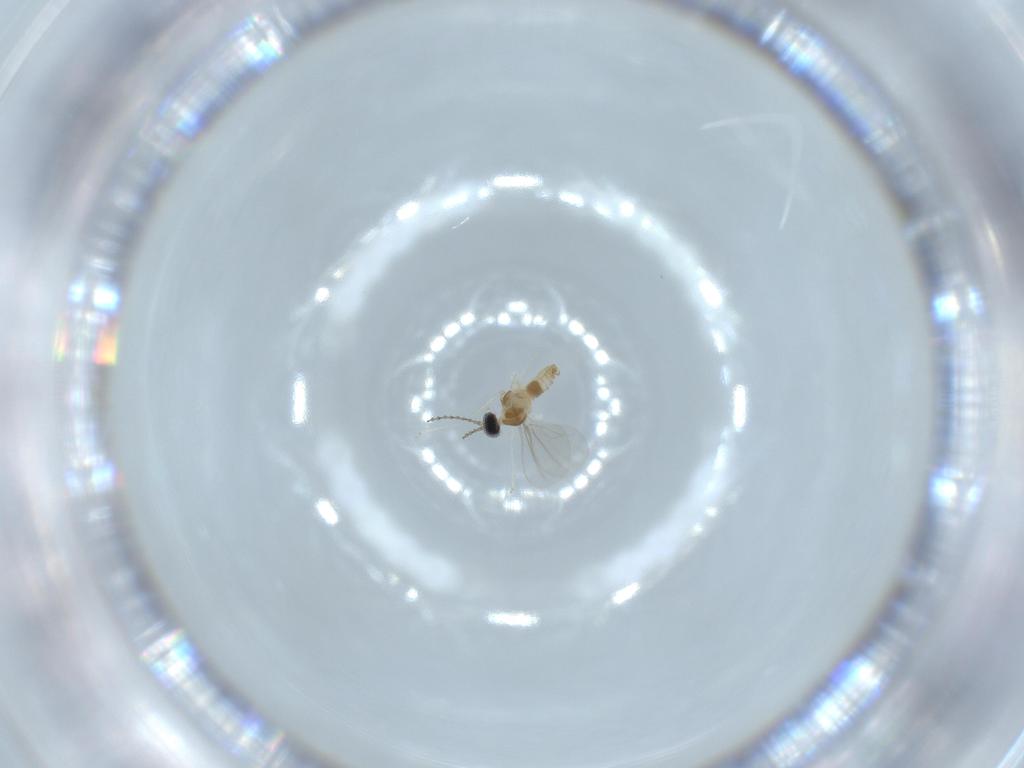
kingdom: Animalia
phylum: Arthropoda
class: Insecta
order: Diptera
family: Cecidomyiidae
